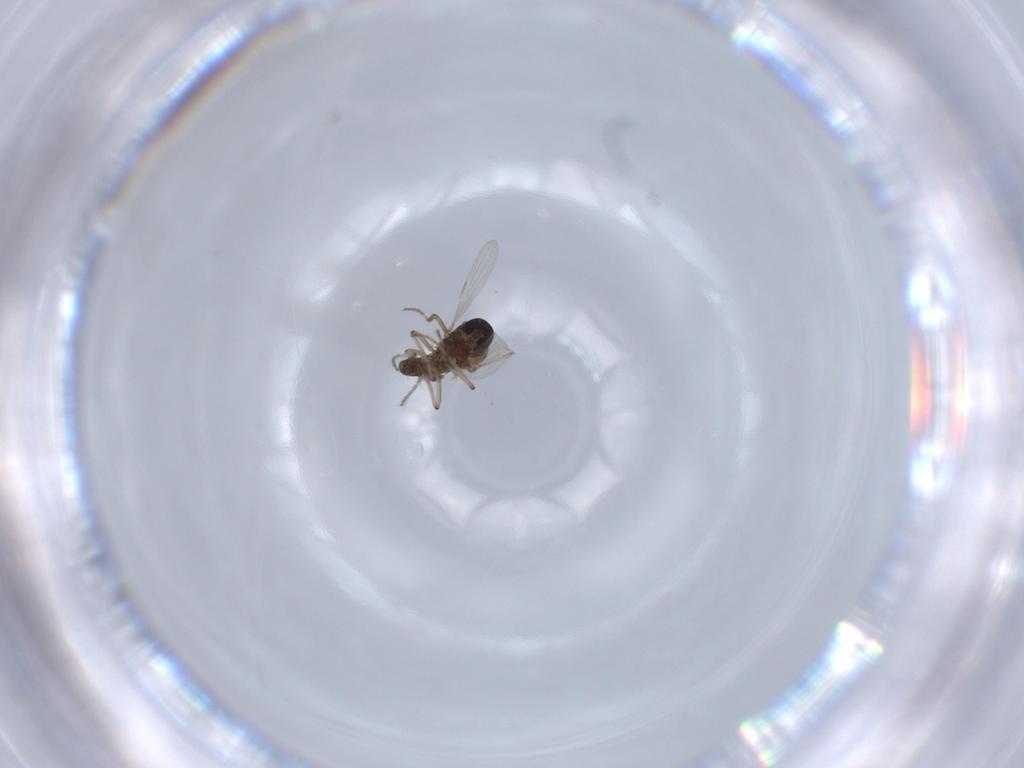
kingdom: Animalia
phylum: Arthropoda
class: Insecta
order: Diptera
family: Ceratopogonidae
